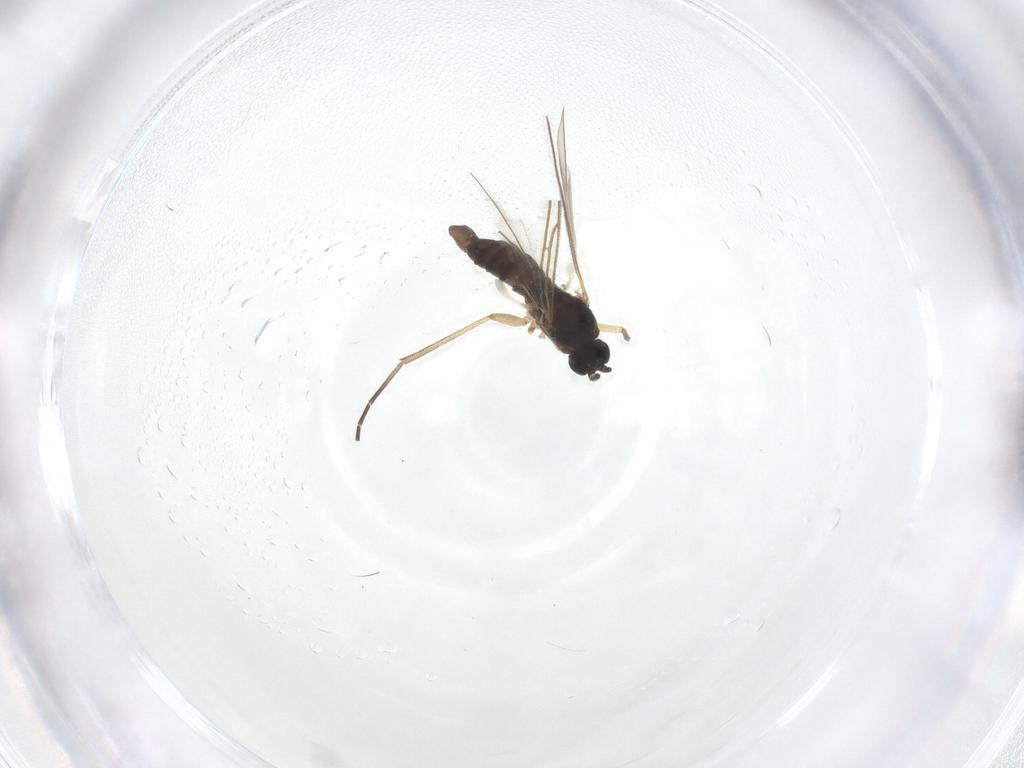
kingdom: Animalia
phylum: Arthropoda
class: Insecta
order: Diptera
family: Sciaridae
